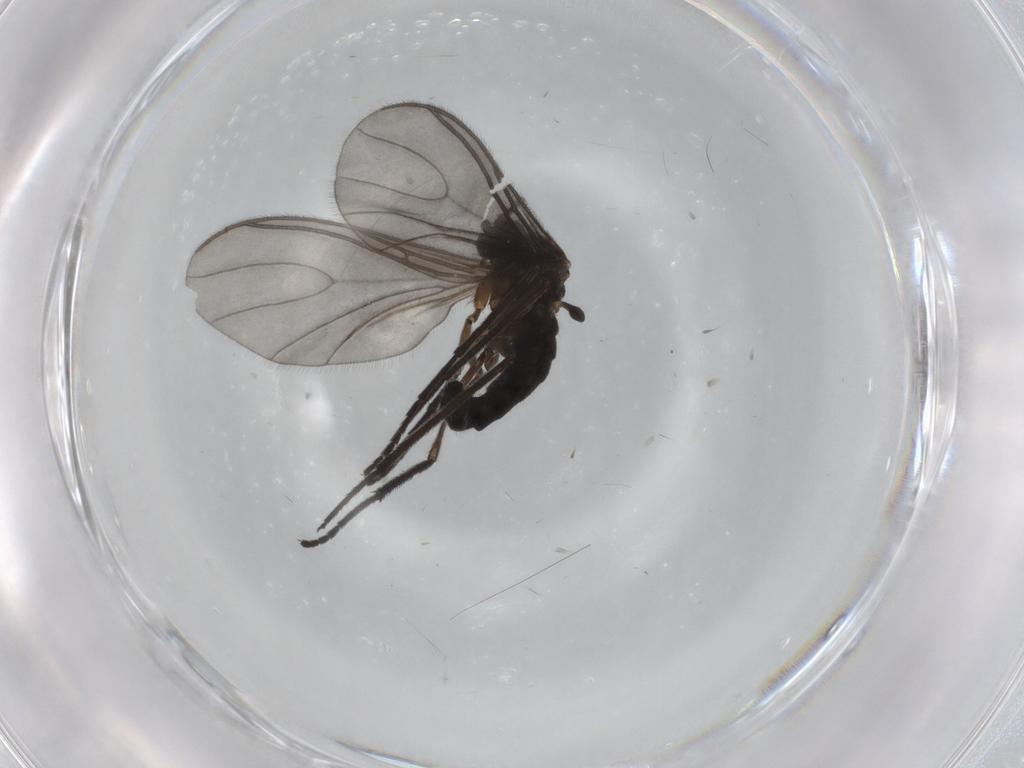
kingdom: Animalia
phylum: Arthropoda
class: Insecta
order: Diptera
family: Sciaridae
